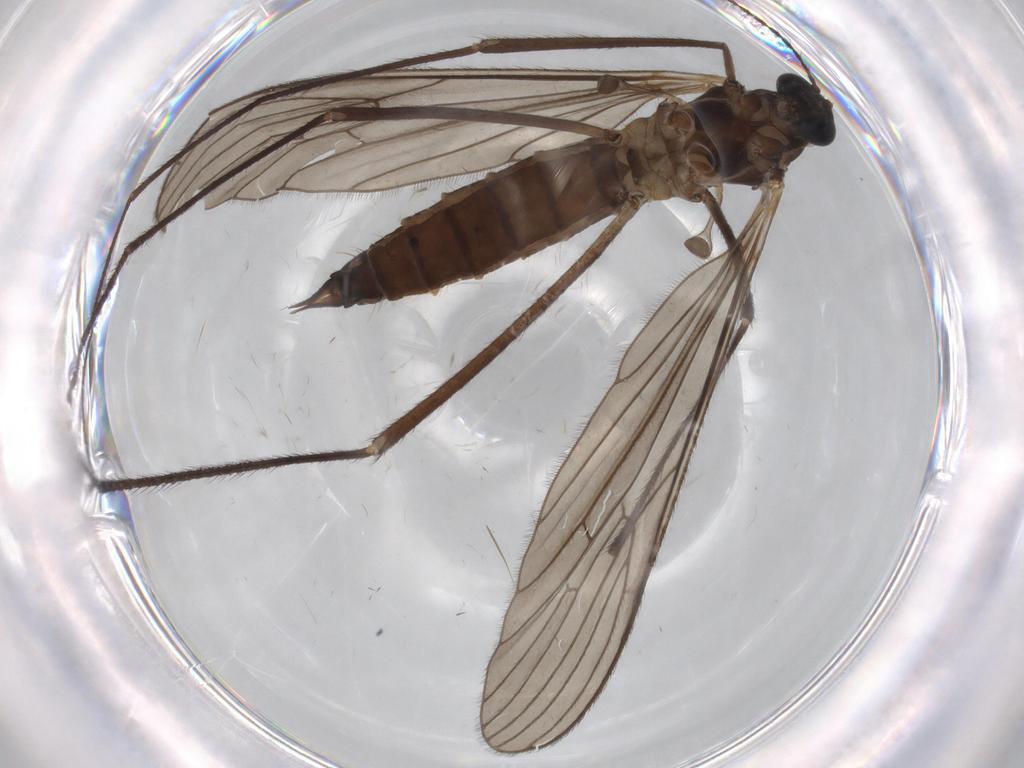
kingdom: Animalia
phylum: Arthropoda
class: Insecta
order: Diptera
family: Limoniidae
